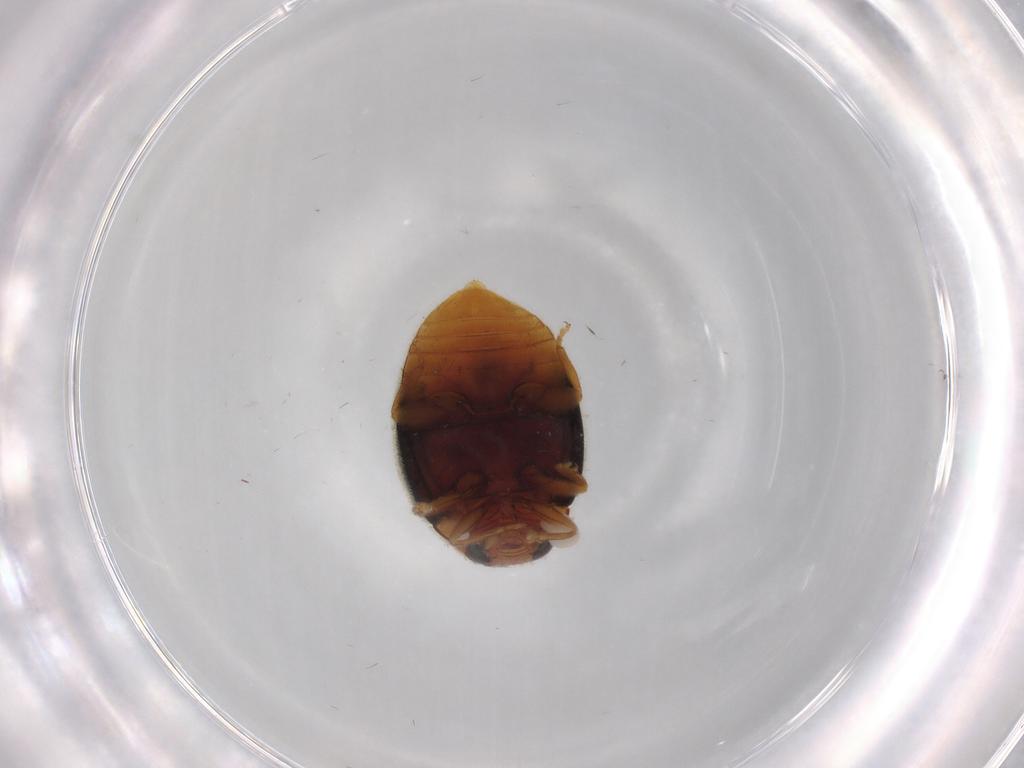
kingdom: Animalia
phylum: Arthropoda
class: Insecta
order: Coleoptera
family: Coccinellidae
